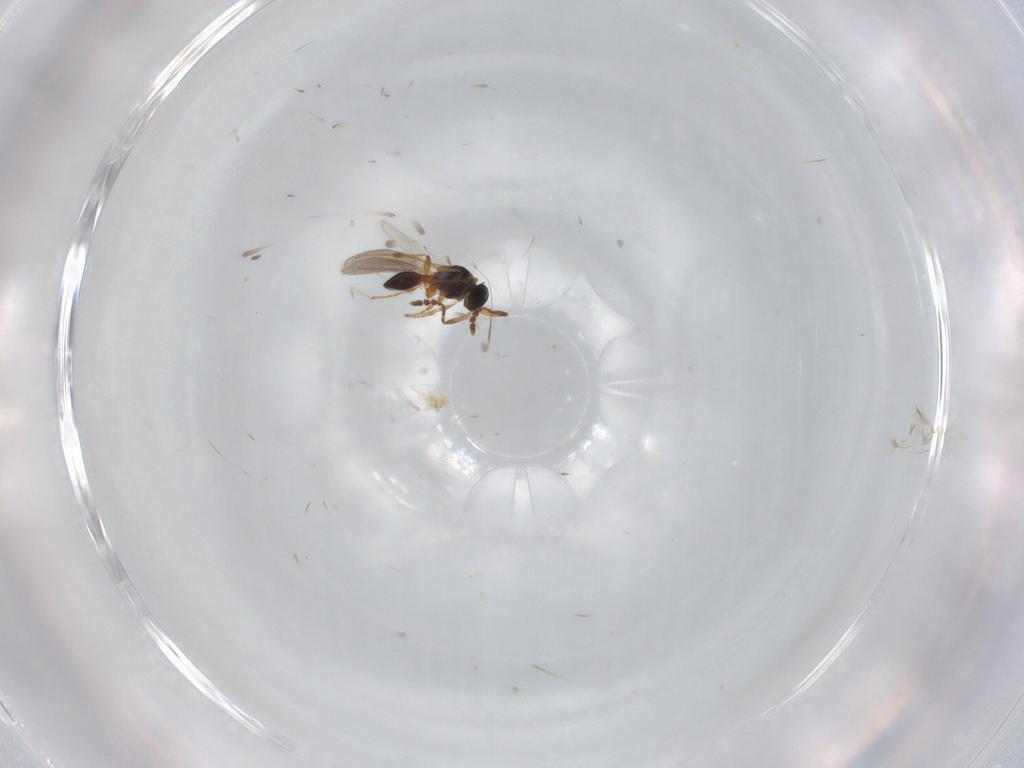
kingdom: Animalia
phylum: Arthropoda
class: Insecta
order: Hymenoptera
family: Platygastridae
